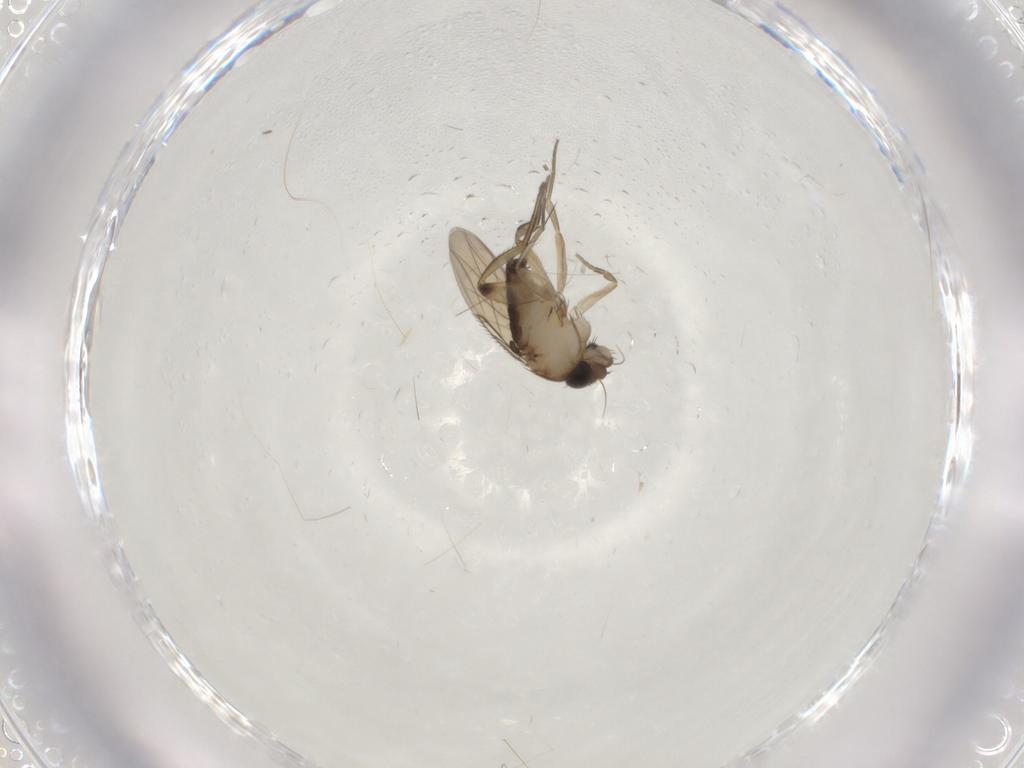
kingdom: Animalia
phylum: Arthropoda
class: Insecta
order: Diptera
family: Phoridae
